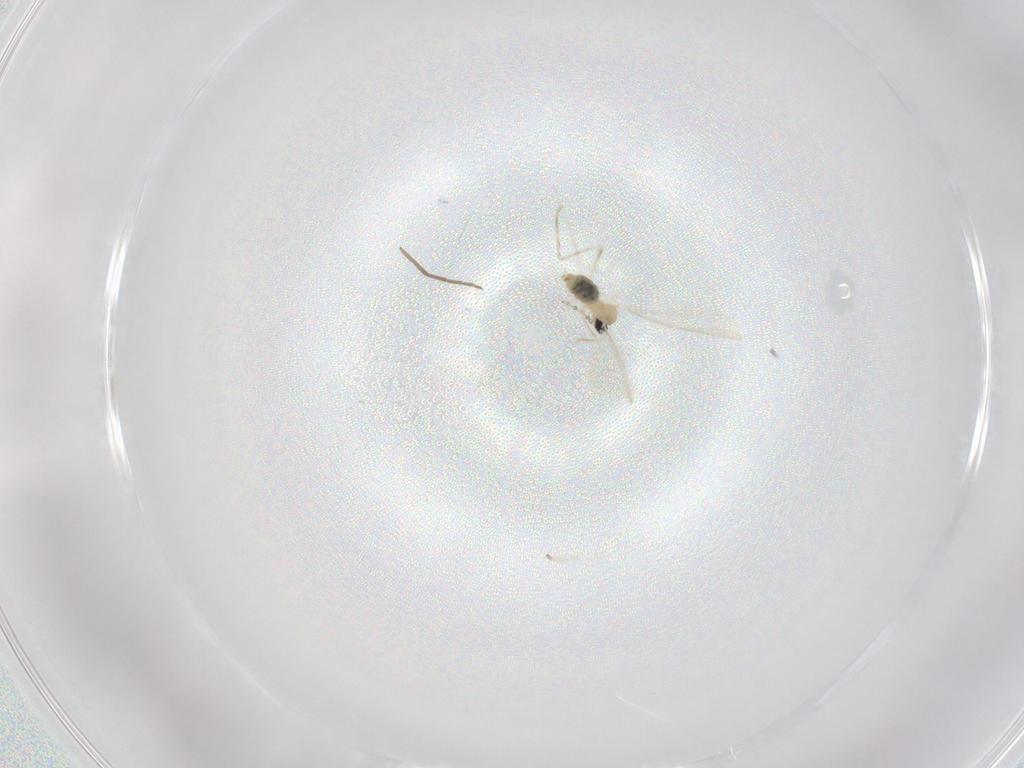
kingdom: Animalia
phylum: Arthropoda
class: Insecta
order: Diptera
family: Chironomidae
